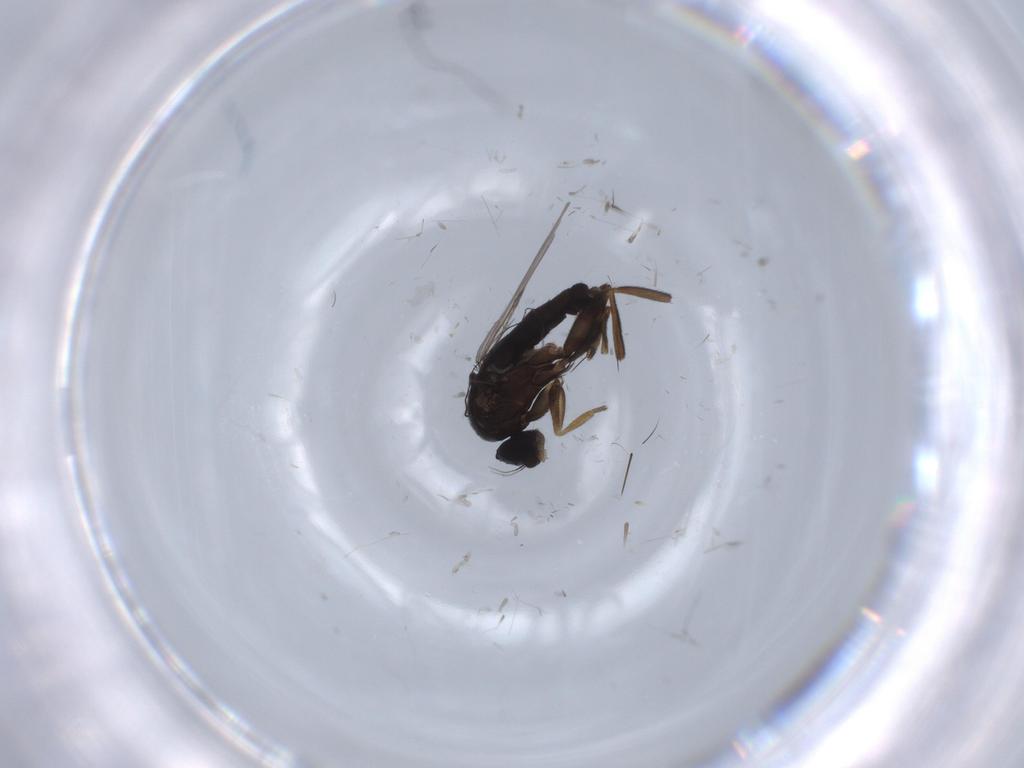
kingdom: Animalia
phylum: Arthropoda
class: Insecta
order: Diptera
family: Phoridae
